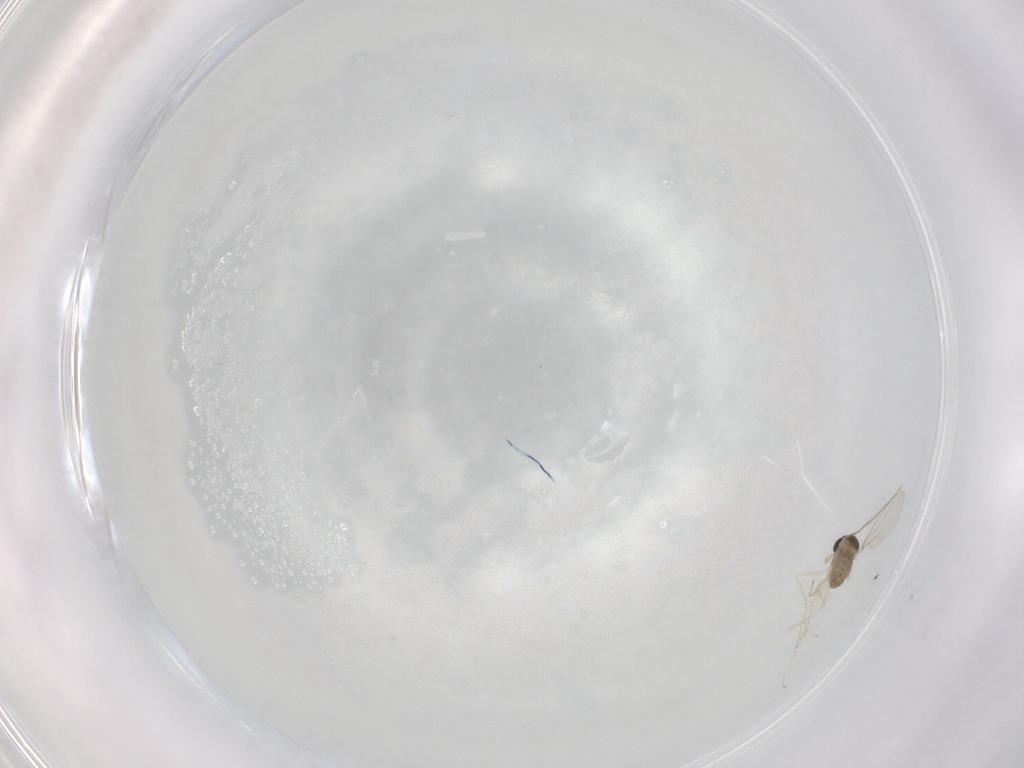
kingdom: Animalia
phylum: Arthropoda
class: Insecta
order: Diptera
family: Cecidomyiidae
